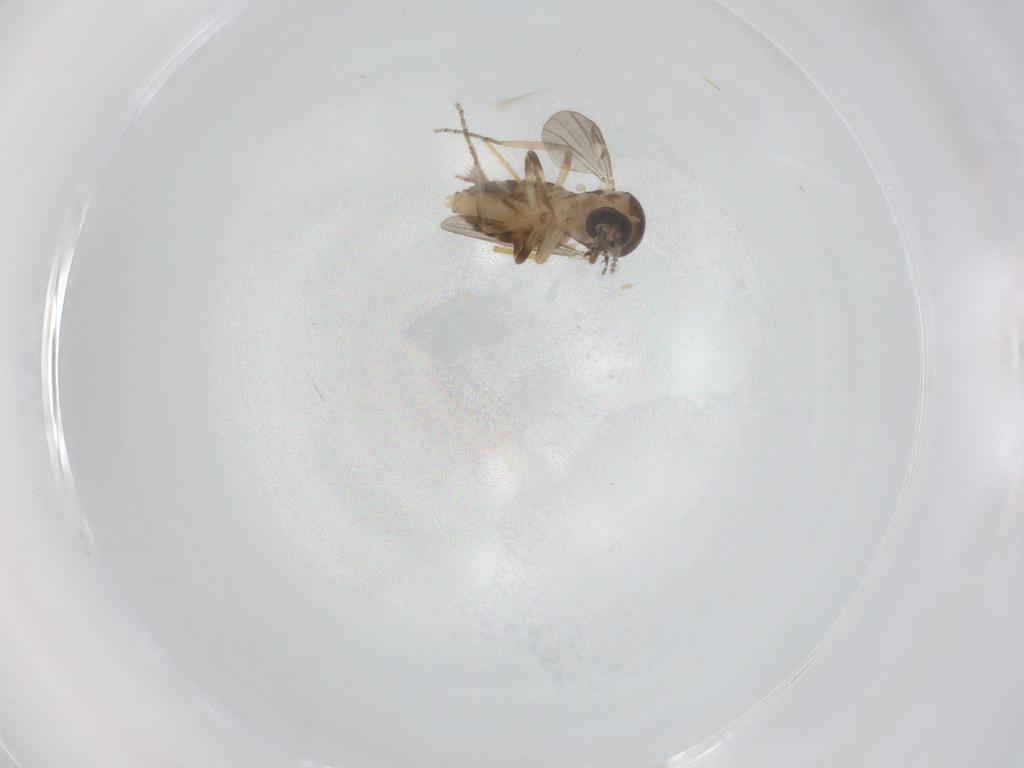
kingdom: Animalia
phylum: Arthropoda
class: Insecta
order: Diptera
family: Ceratopogonidae
